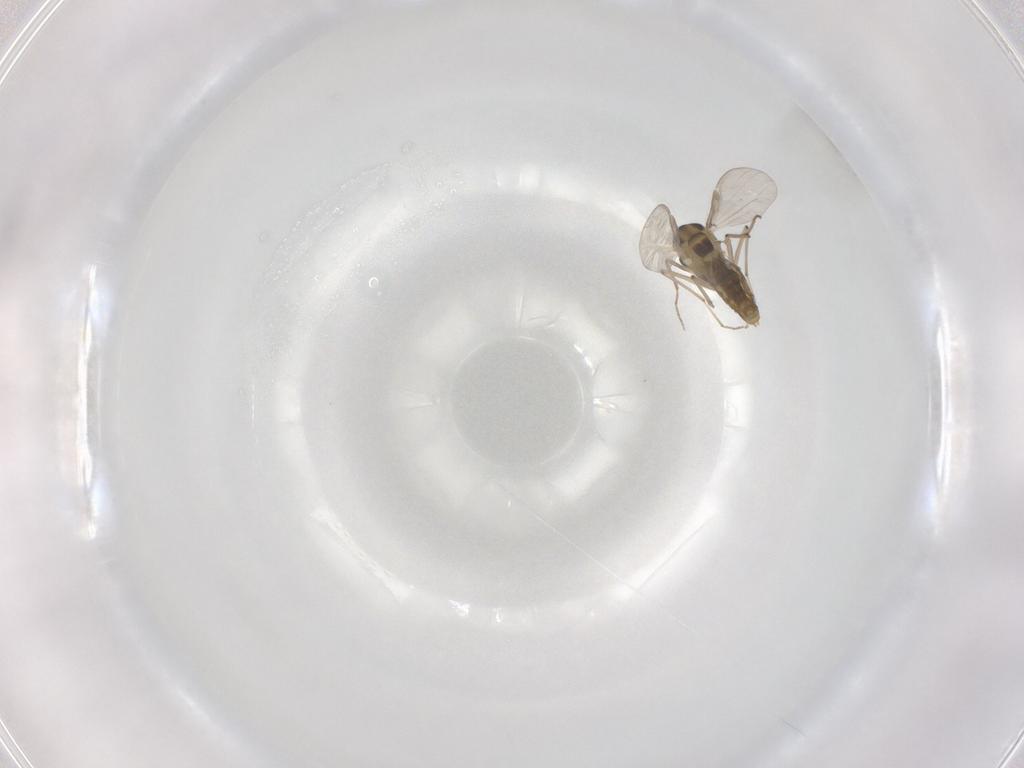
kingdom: Animalia
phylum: Arthropoda
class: Insecta
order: Diptera
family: Chironomidae
